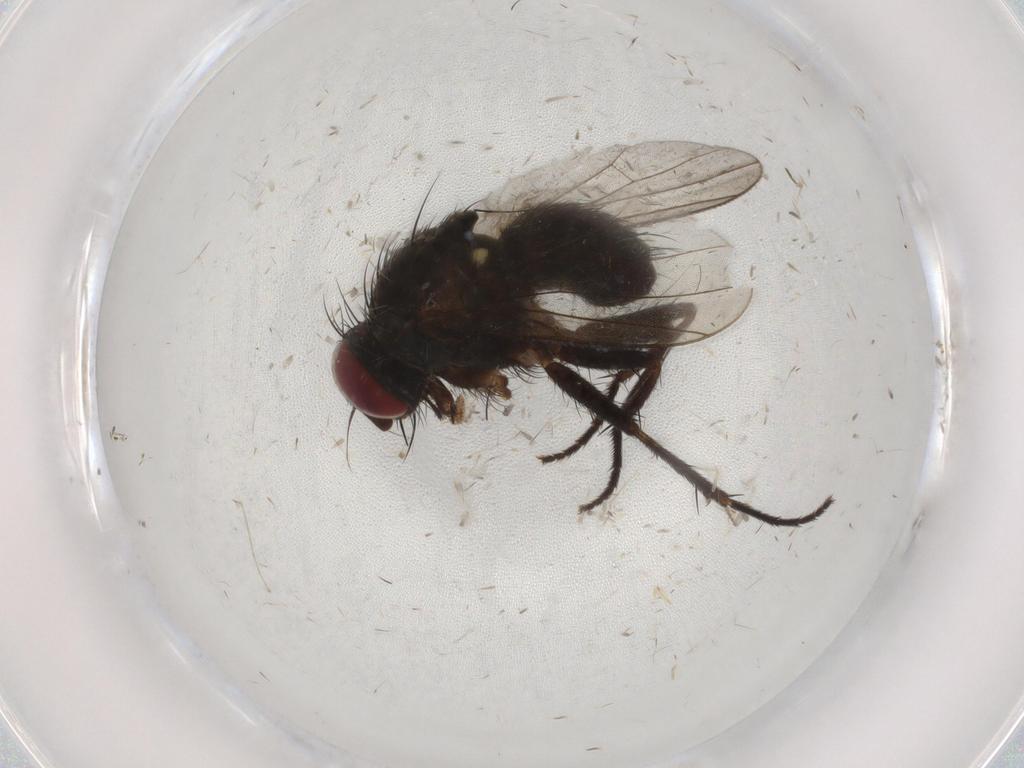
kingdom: Animalia
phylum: Arthropoda
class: Insecta
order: Diptera
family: Muscidae
